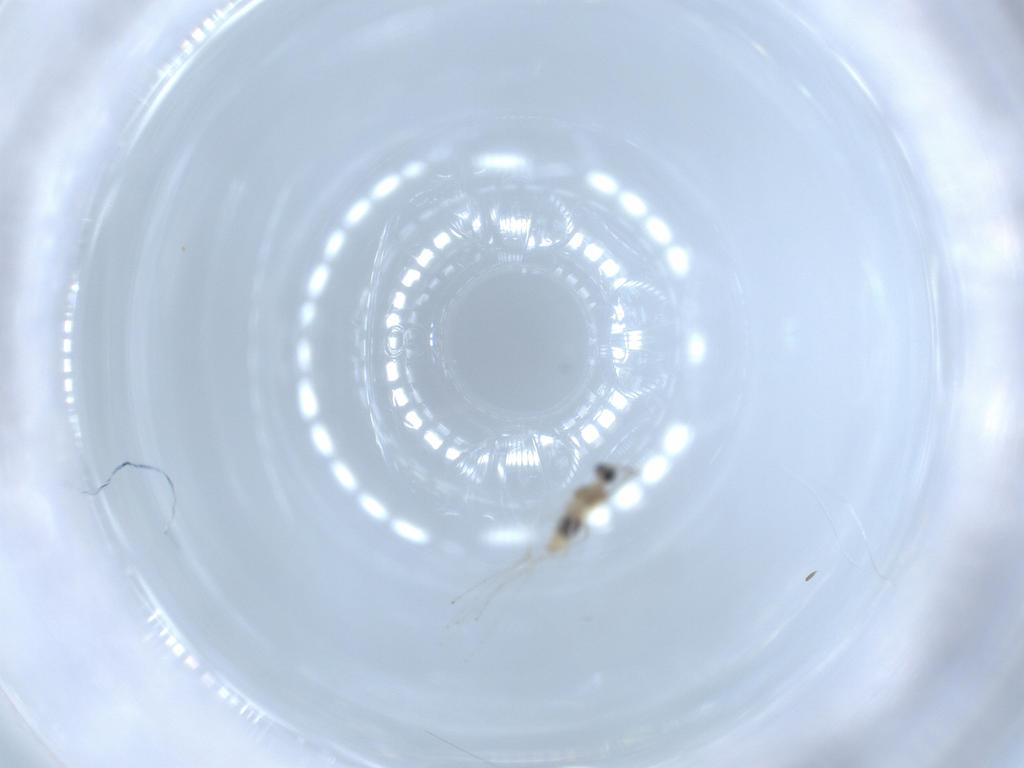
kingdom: Animalia
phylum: Arthropoda
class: Insecta
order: Diptera
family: Cecidomyiidae
